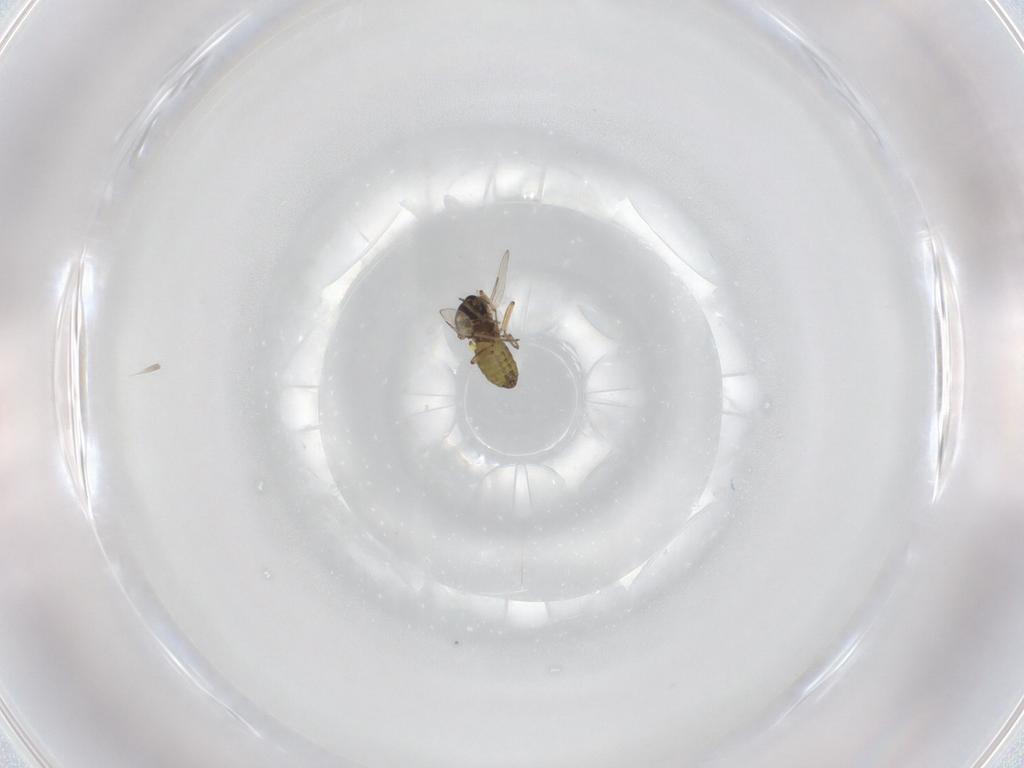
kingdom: Animalia
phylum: Arthropoda
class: Insecta
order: Diptera
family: Ceratopogonidae
